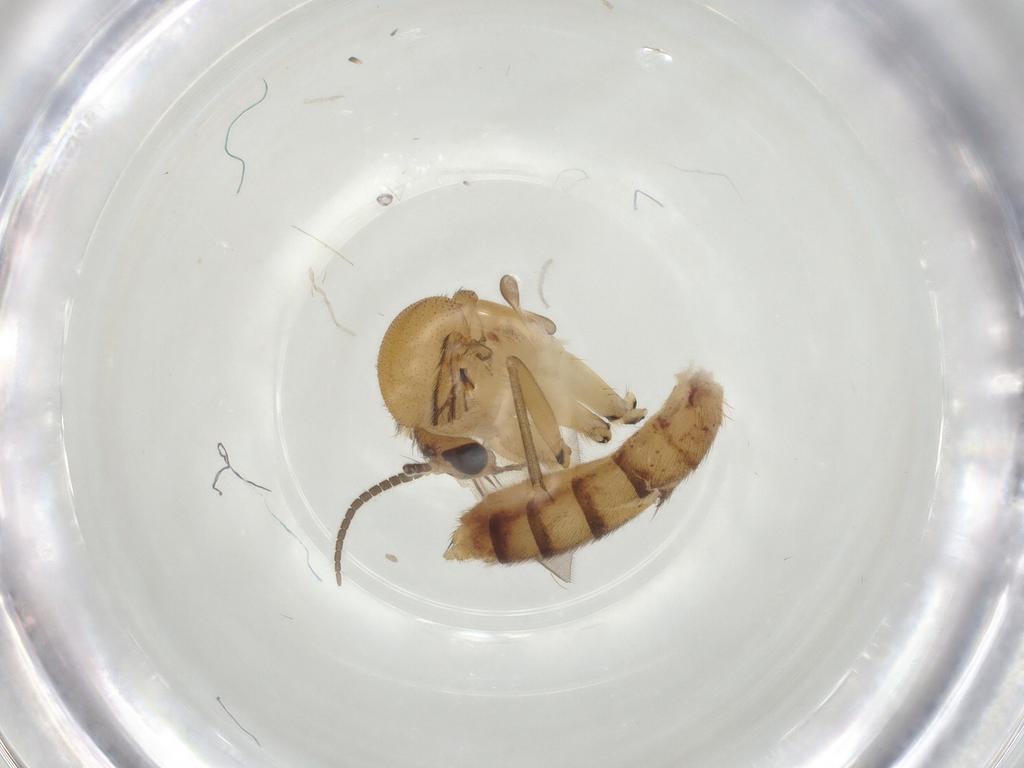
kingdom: Animalia
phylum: Arthropoda
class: Insecta
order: Diptera
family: Mycetophilidae
